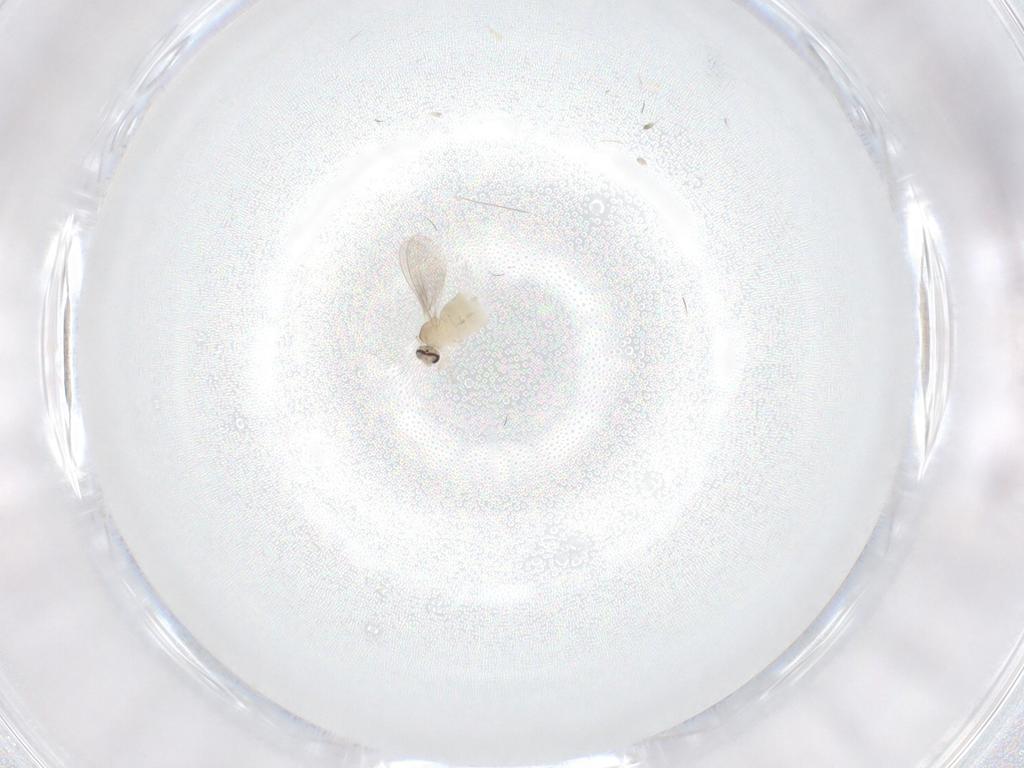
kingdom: Animalia
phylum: Arthropoda
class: Insecta
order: Diptera
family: Cecidomyiidae
